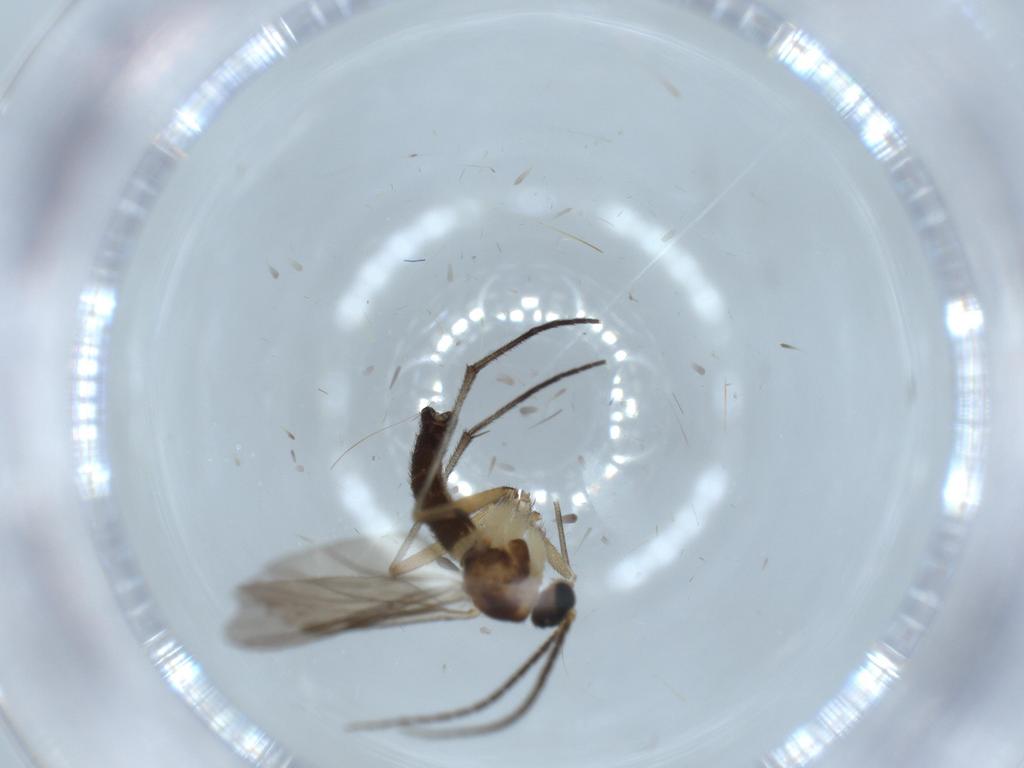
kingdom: Animalia
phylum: Arthropoda
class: Insecta
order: Diptera
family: Sciaridae
